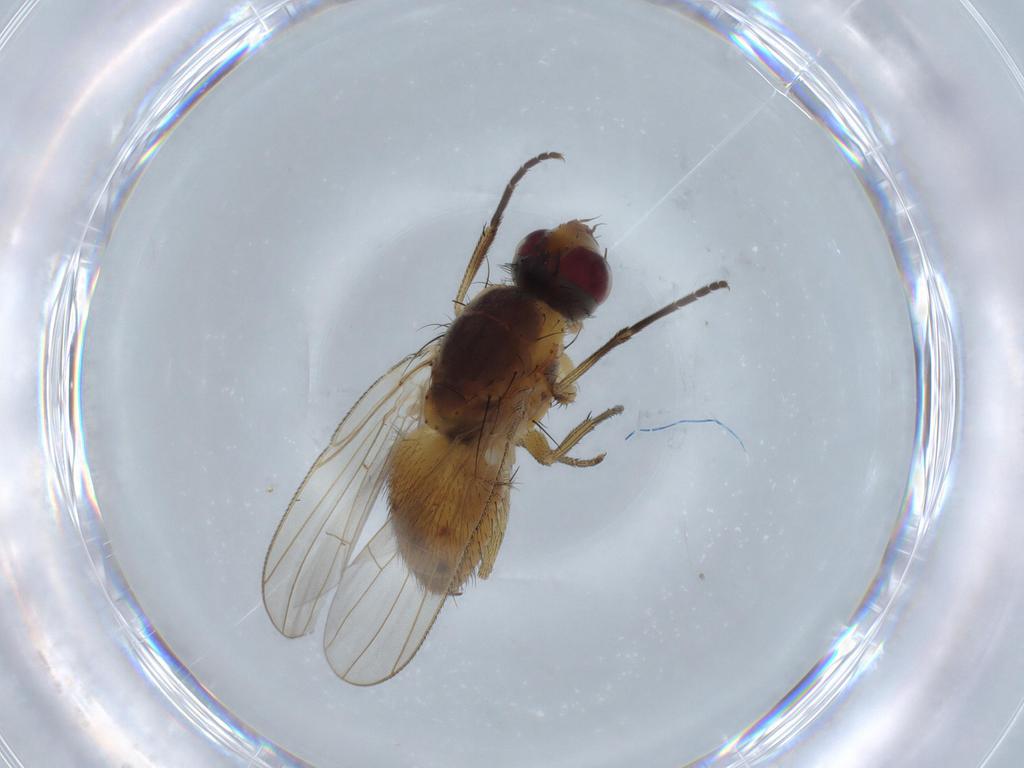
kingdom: Animalia
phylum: Arthropoda
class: Insecta
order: Diptera
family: Muscidae
